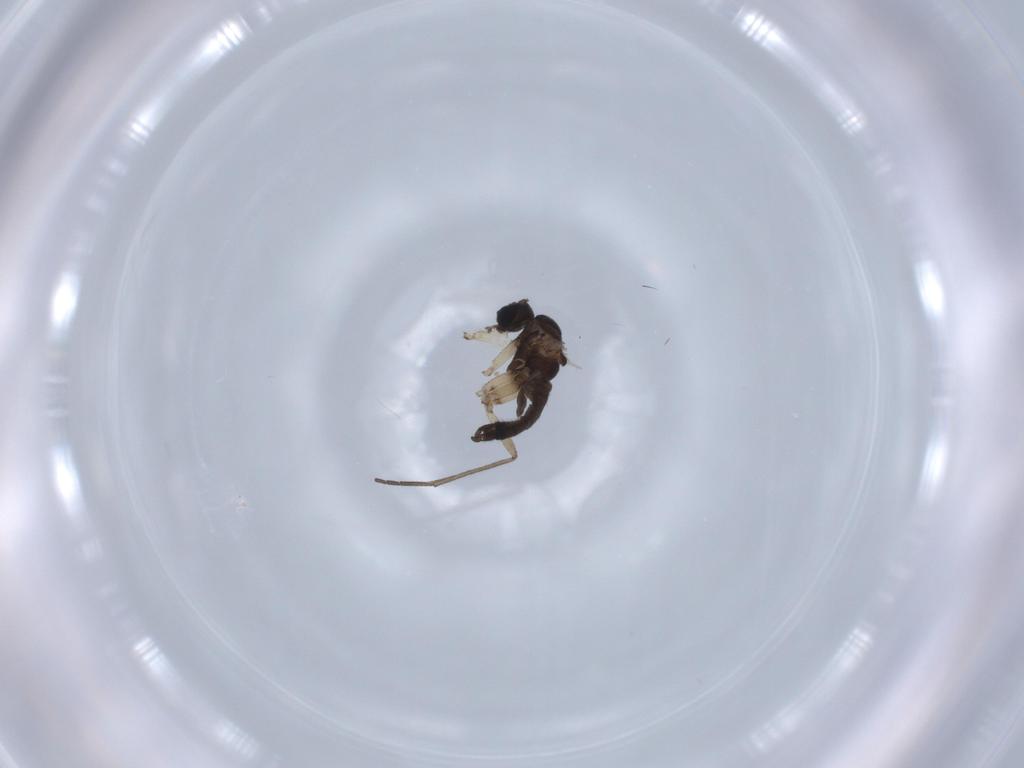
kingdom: Animalia
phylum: Arthropoda
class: Insecta
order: Diptera
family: Sciaridae
